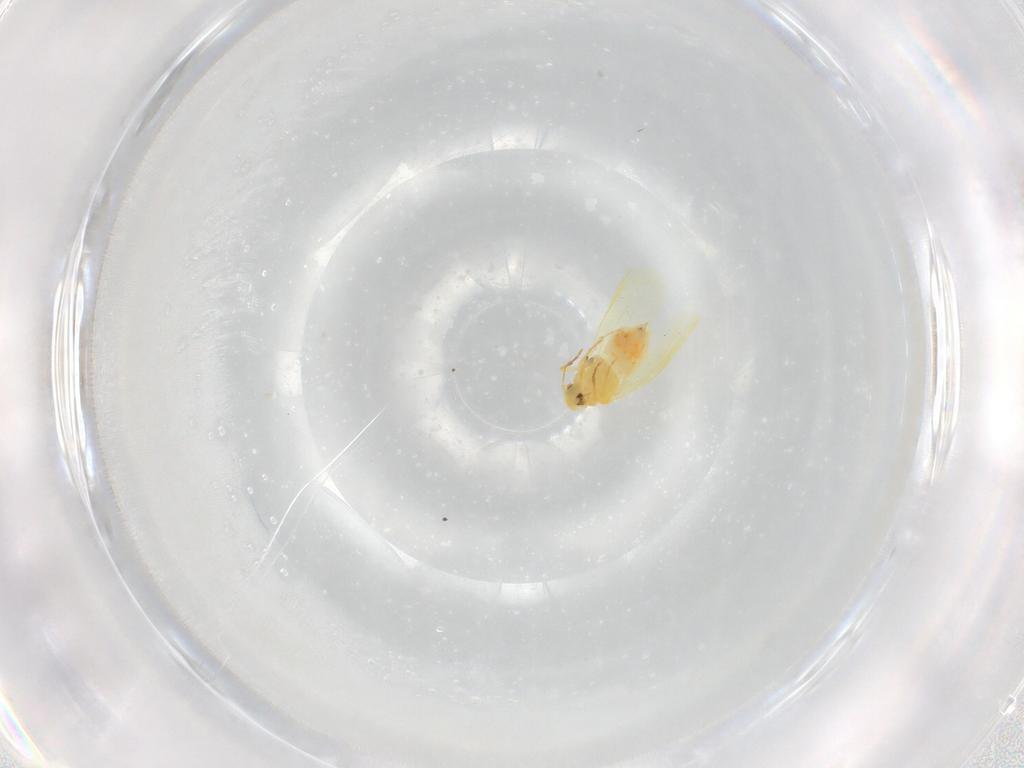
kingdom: Animalia
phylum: Arthropoda
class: Insecta
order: Hemiptera
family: Aleyrodidae
